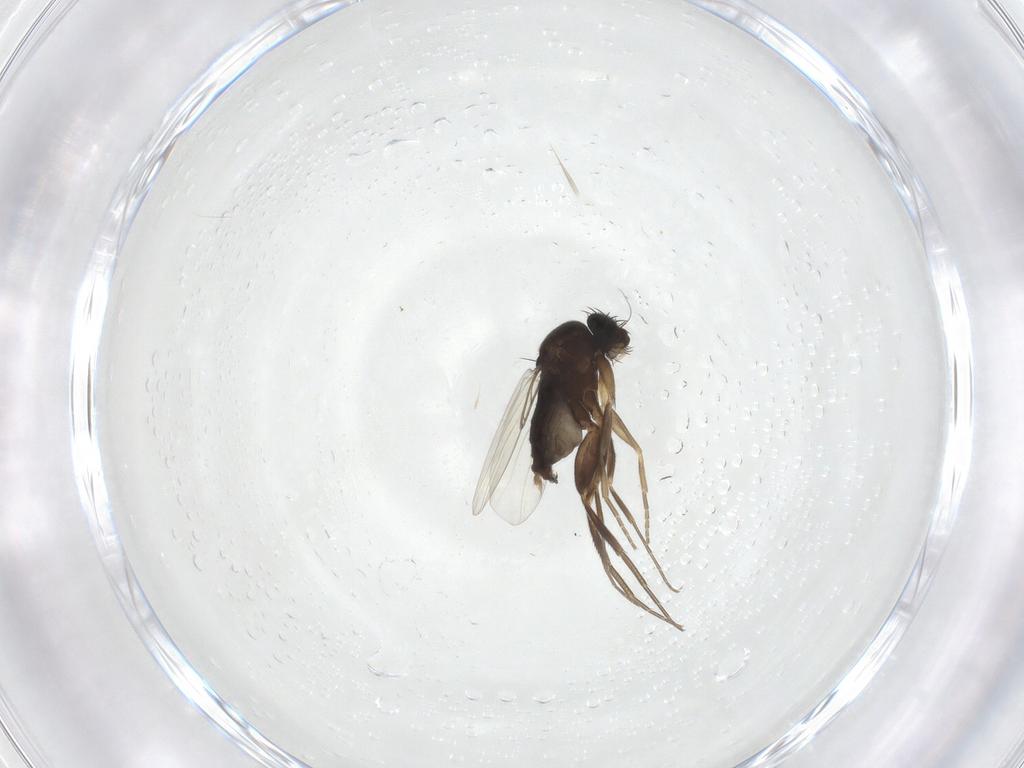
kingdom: Animalia
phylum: Arthropoda
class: Insecta
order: Diptera
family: Phoridae
